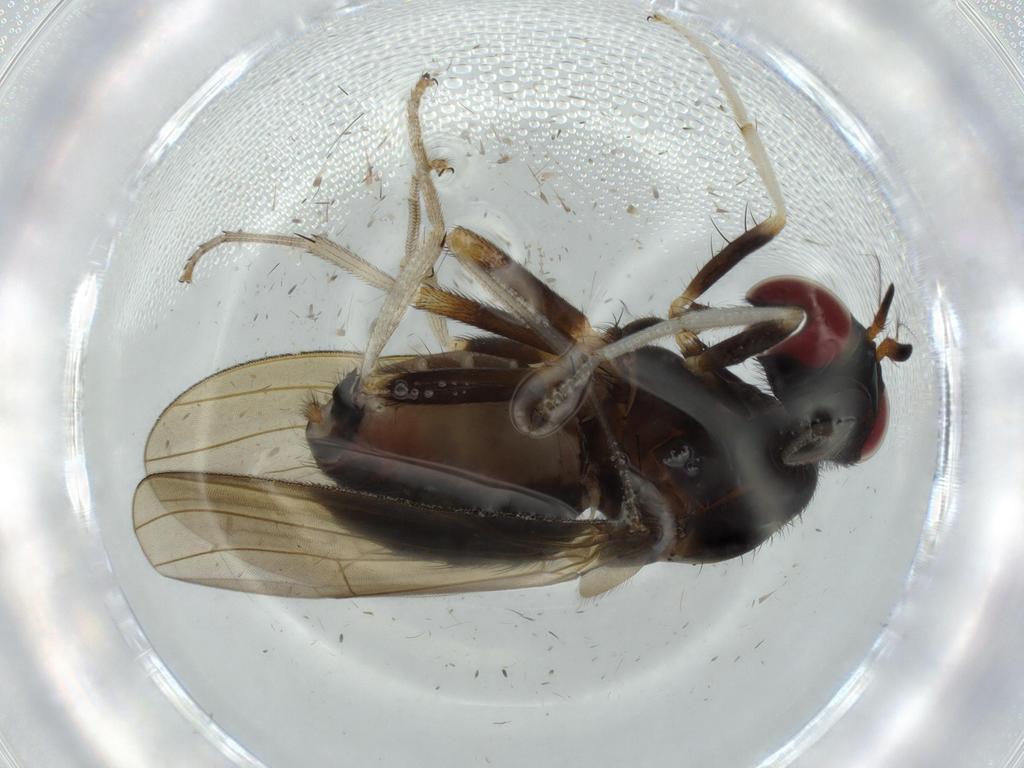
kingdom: Animalia
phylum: Arthropoda
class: Insecta
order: Diptera
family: Cecidomyiidae
